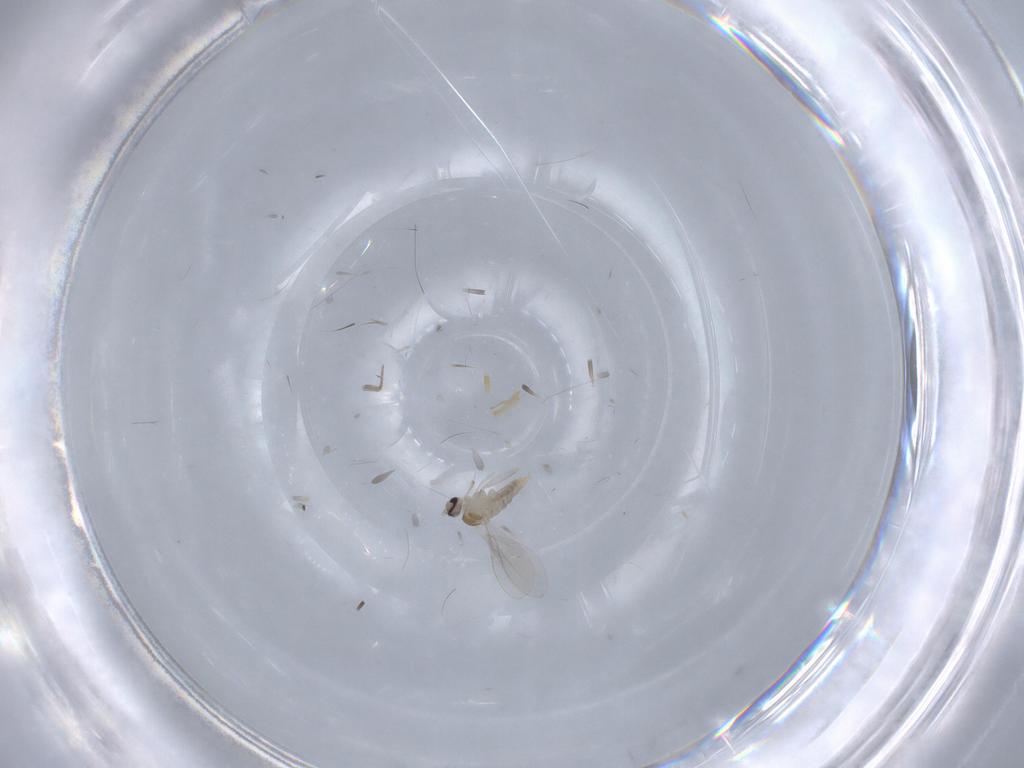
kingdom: Animalia
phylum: Arthropoda
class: Insecta
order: Diptera
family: Cecidomyiidae
